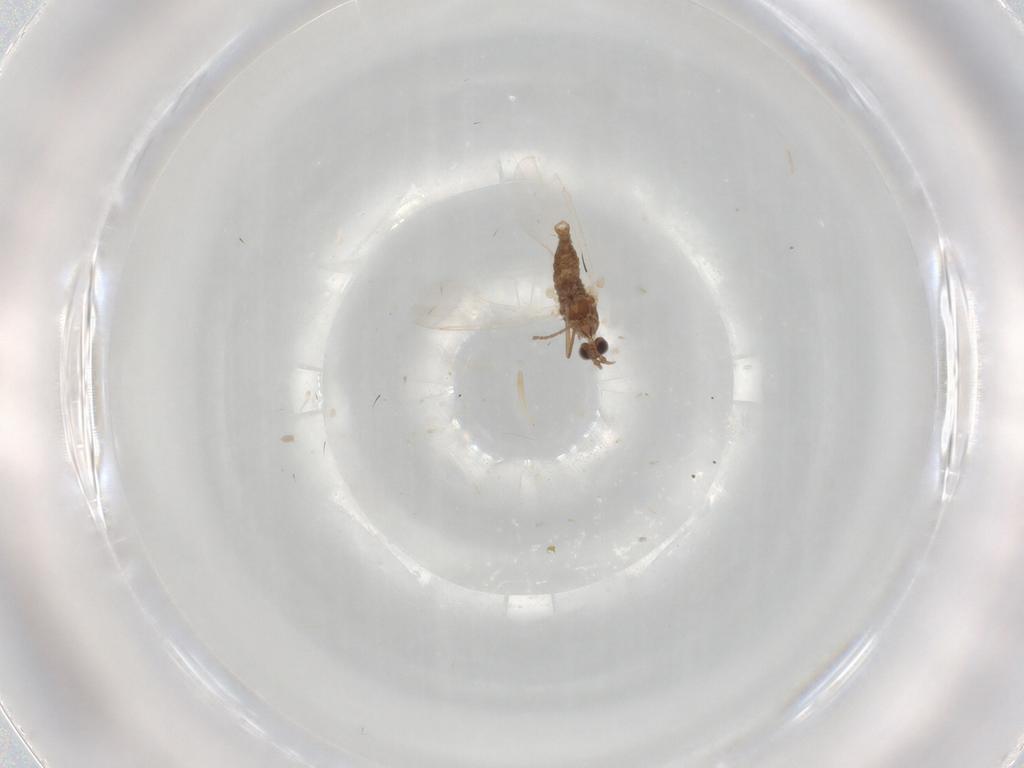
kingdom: Animalia
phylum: Arthropoda
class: Insecta
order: Diptera
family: Cecidomyiidae
